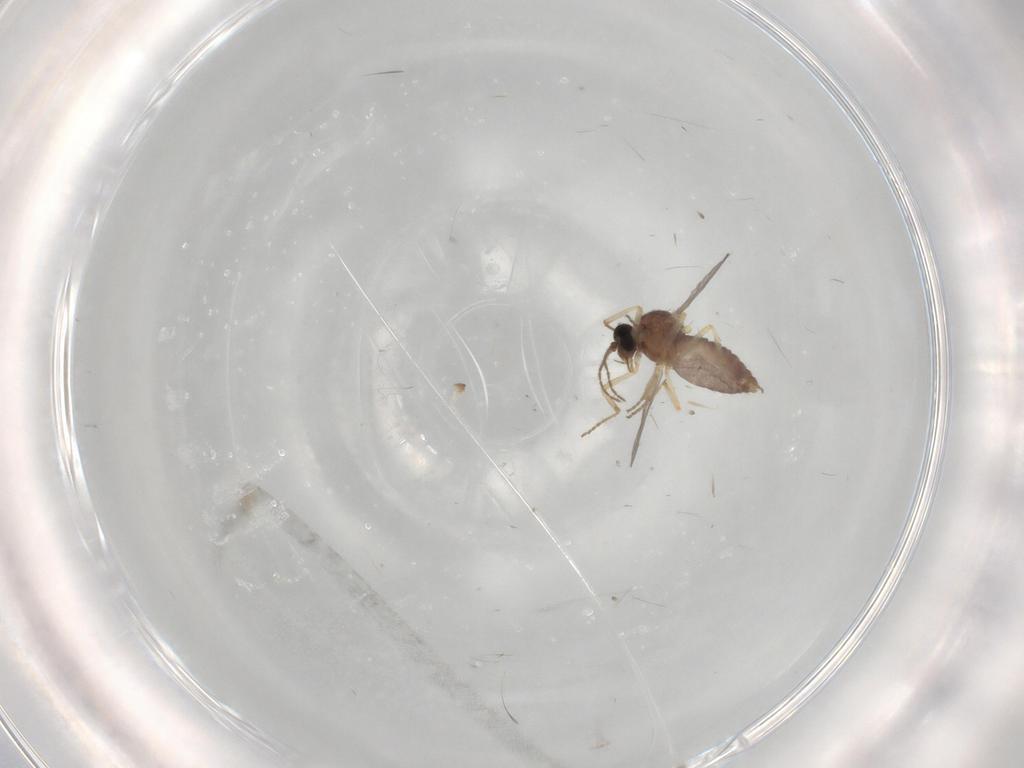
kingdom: Animalia
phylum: Arthropoda
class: Insecta
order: Diptera
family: Ceratopogonidae
